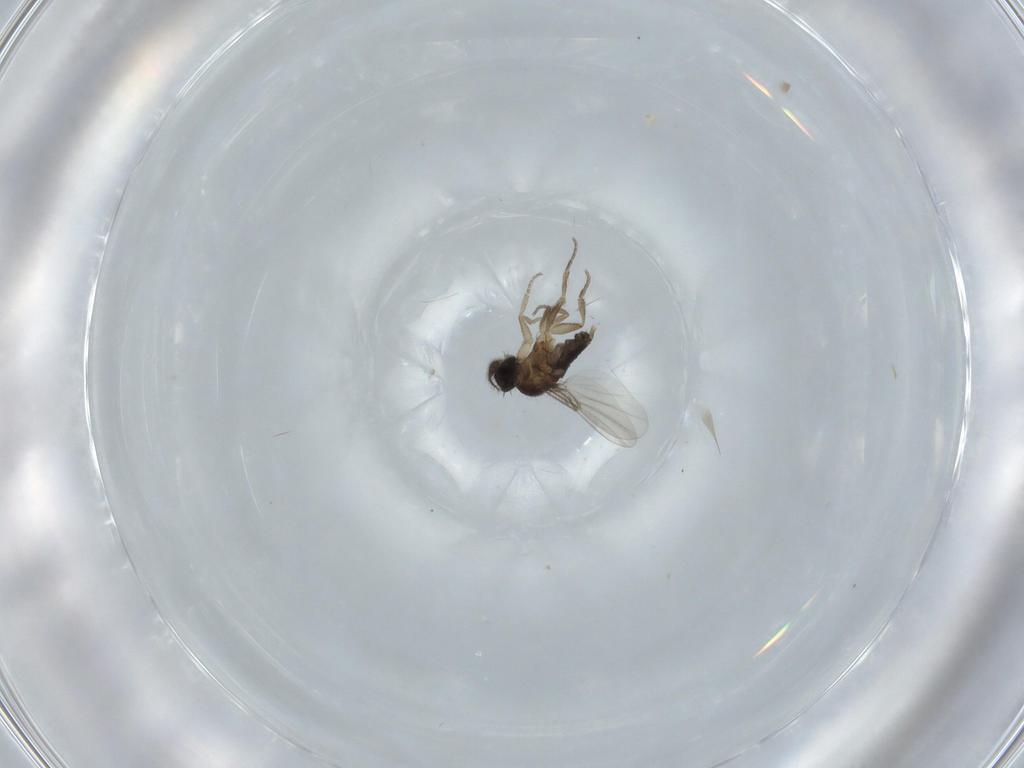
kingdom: Animalia
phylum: Arthropoda
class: Insecta
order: Diptera
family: Phoridae
